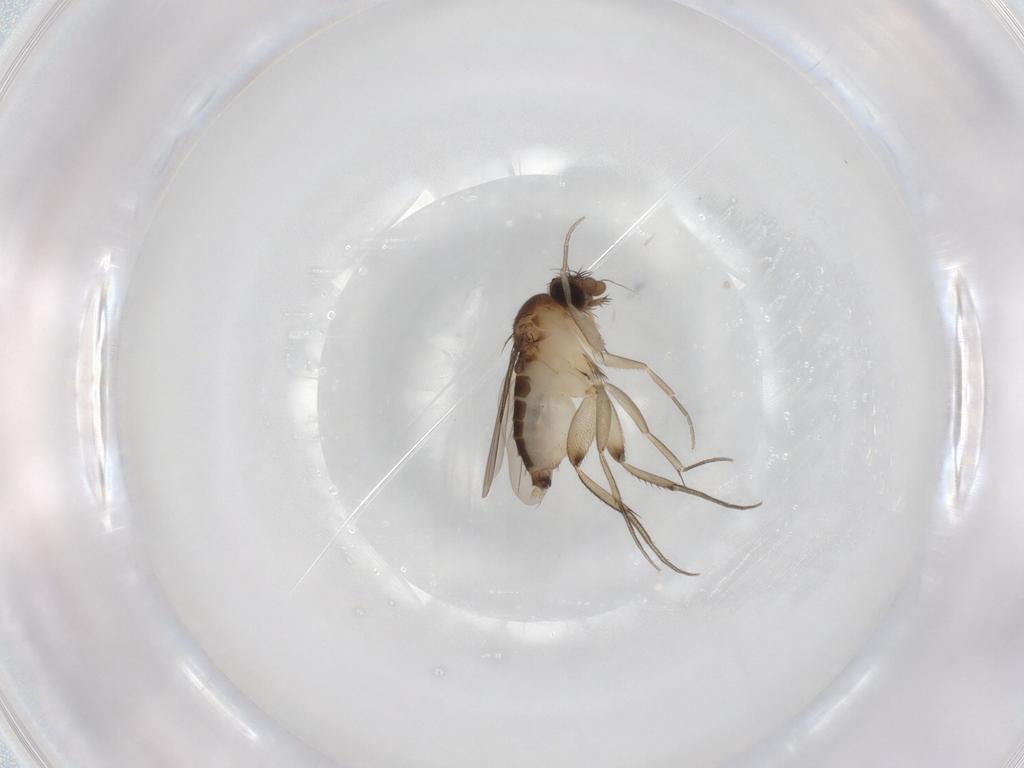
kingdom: Animalia
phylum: Arthropoda
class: Insecta
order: Diptera
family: Phoridae
